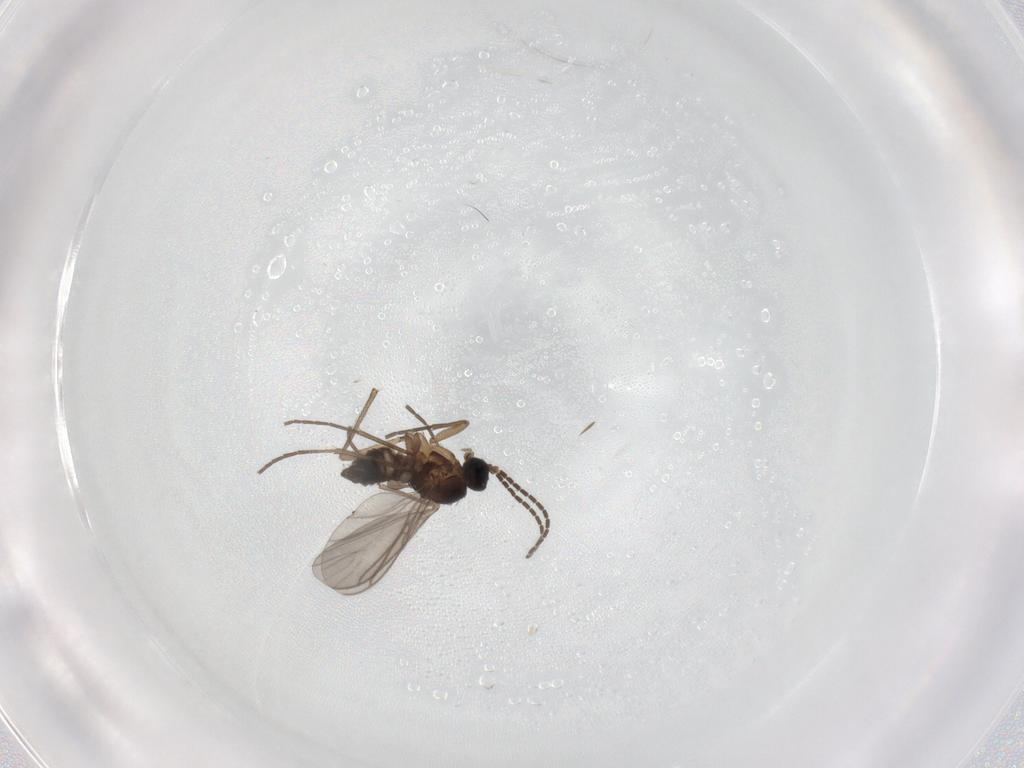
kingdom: Animalia
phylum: Arthropoda
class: Insecta
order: Diptera
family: Sciaridae
